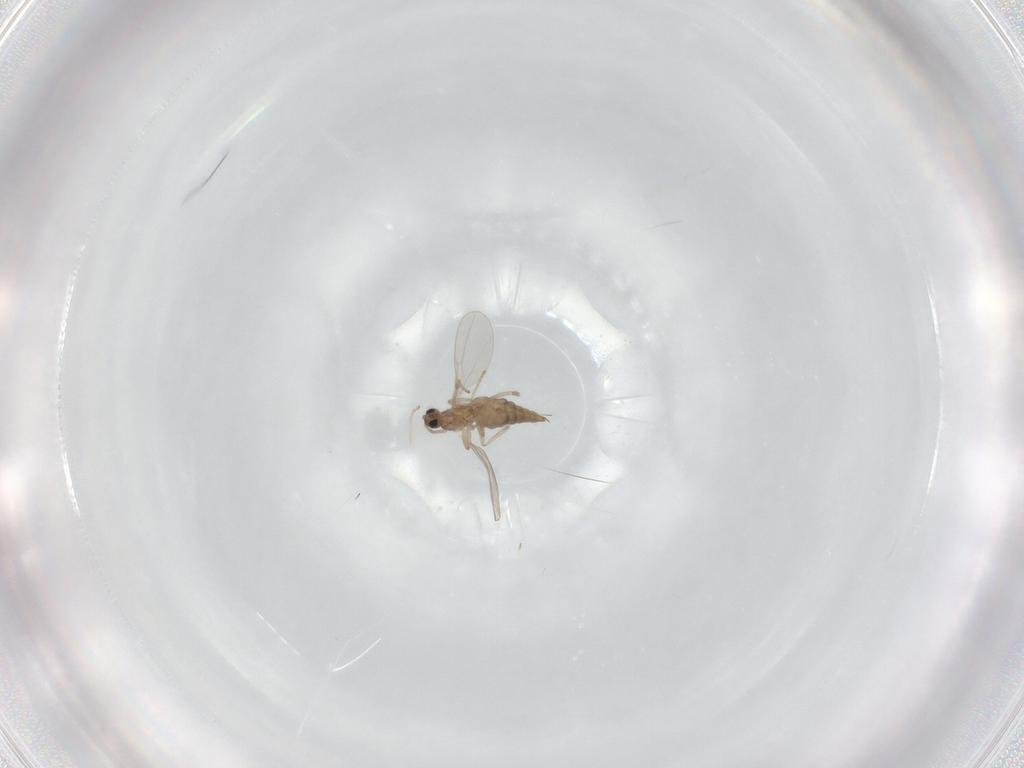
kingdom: Animalia
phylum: Arthropoda
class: Insecta
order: Diptera
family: Cecidomyiidae
